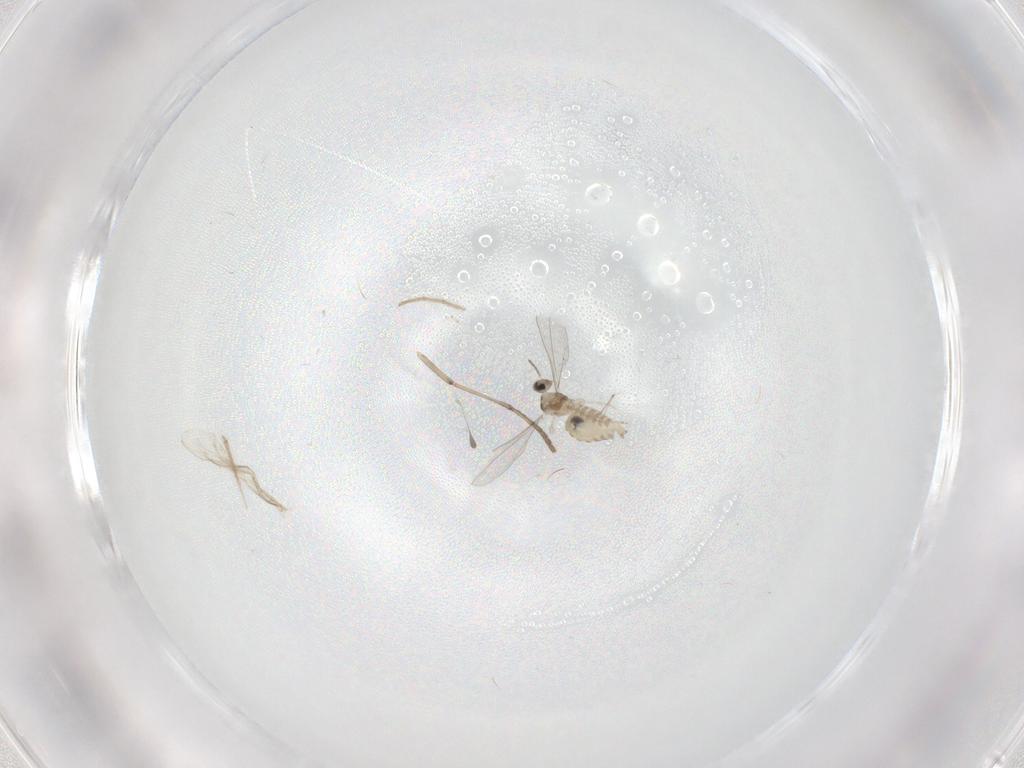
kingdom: Animalia
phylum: Arthropoda
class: Insecta
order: Diptera
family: Cecidomyiidae
